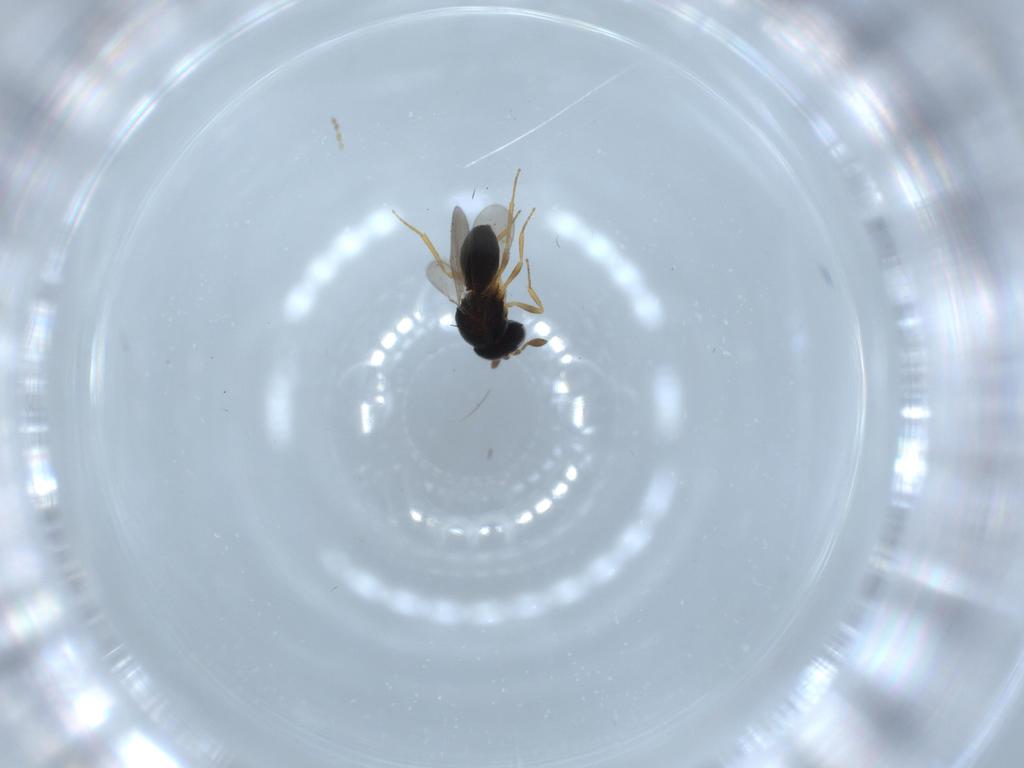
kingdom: Animalia
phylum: Arthropoda
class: Insecta
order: Hymenoptera
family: Scelionidae
